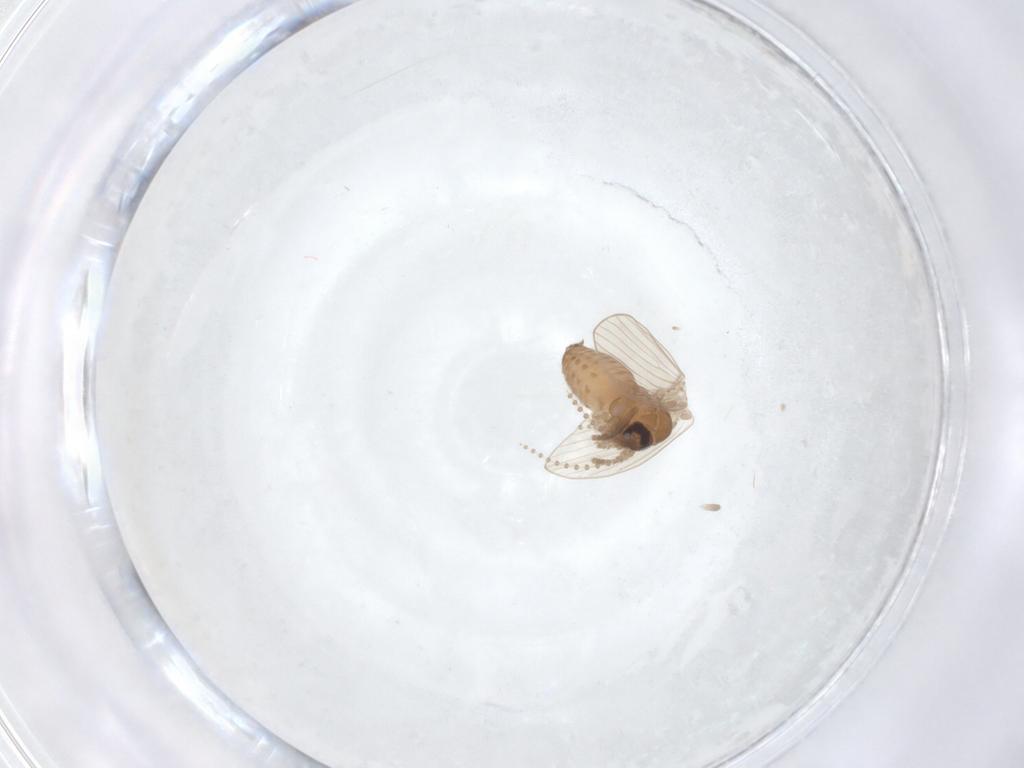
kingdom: Animalia
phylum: Arthropoda
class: Insecta
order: Diptera
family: Psychodidae
